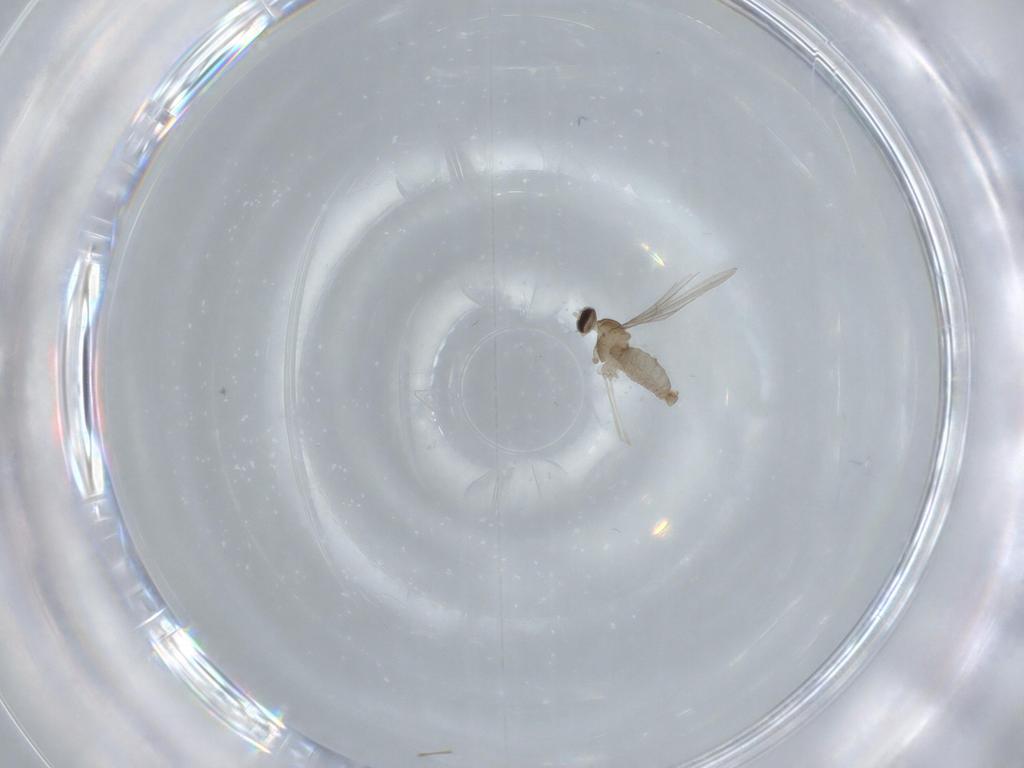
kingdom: Animalia
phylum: Arthropoda
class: Insecta
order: Diptera
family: Cecidomyiidae
